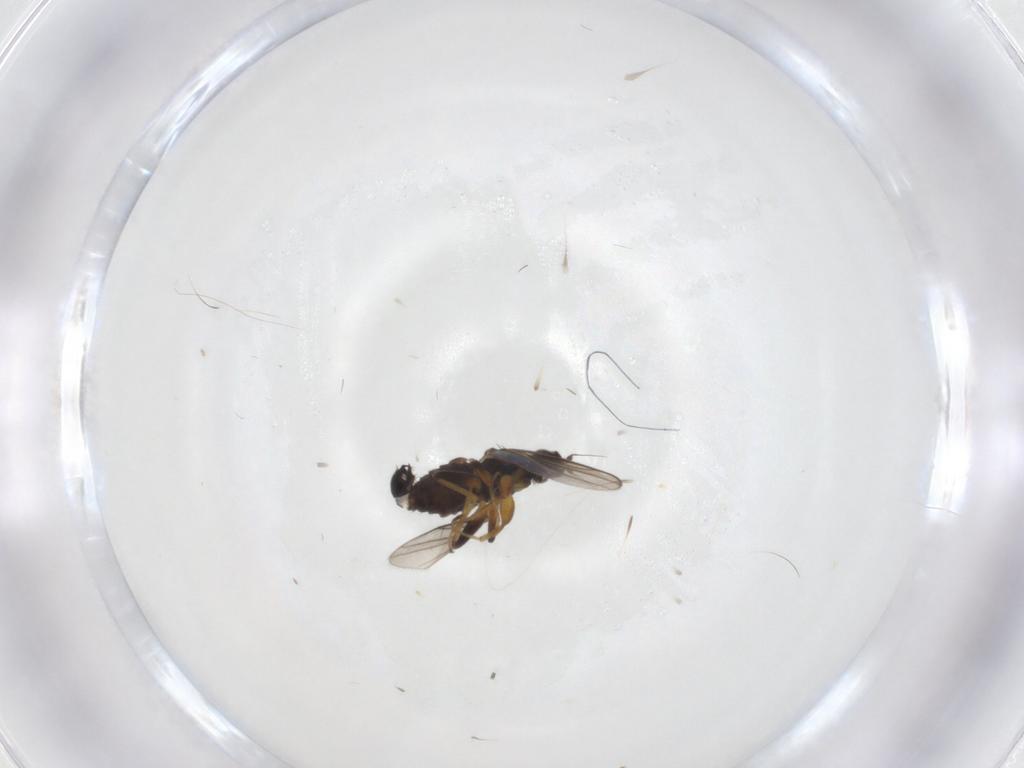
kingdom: Animalia
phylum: Arthropoda
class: Insecta
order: Diptera
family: Hybotidae
